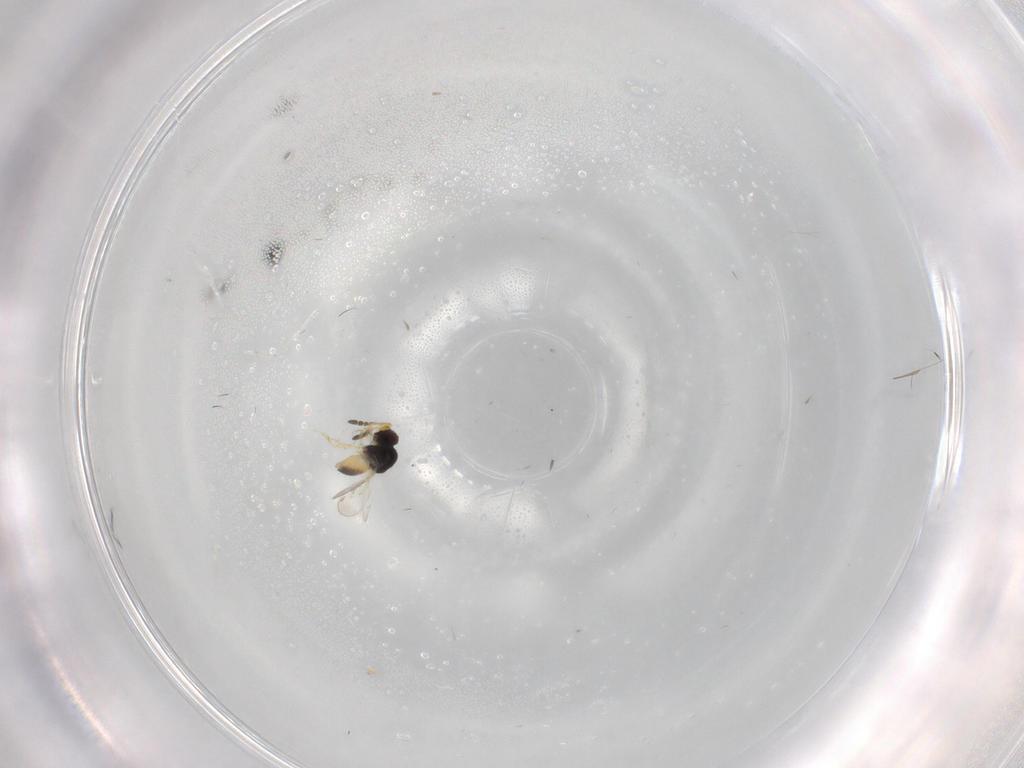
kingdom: Animalia
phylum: Arthropoda
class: Insecta
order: Hymenoptera
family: Ceraphronidae
